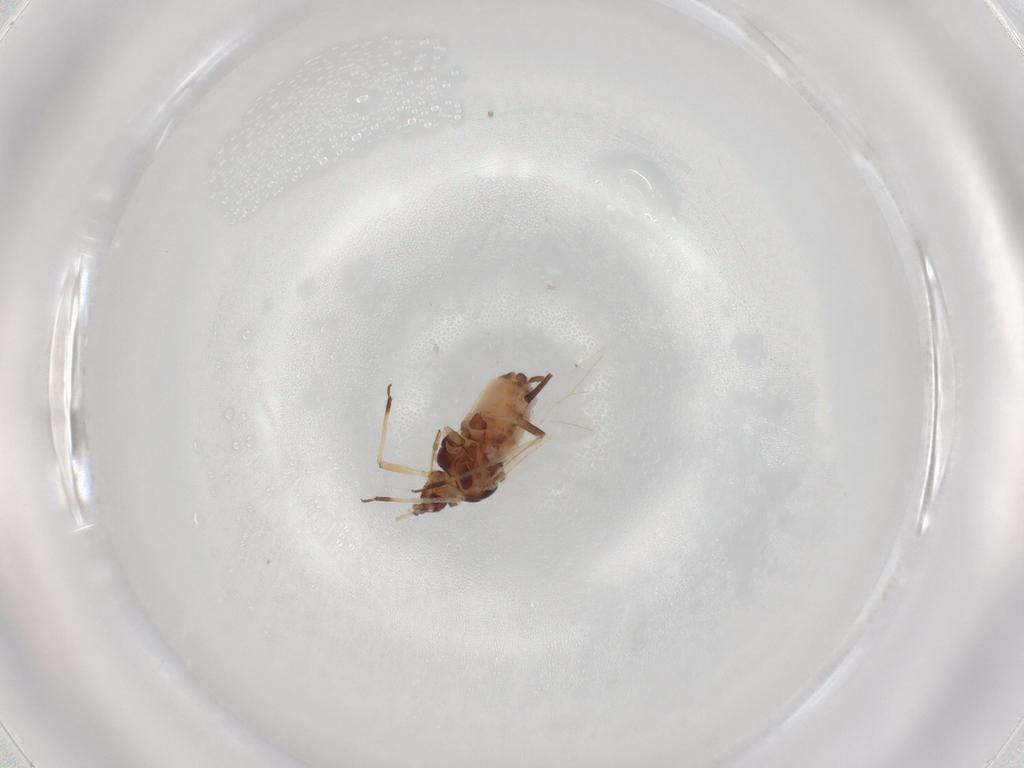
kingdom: Animalia
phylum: Arthropoda
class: Insecta
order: Hemiptera
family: Aphididae
